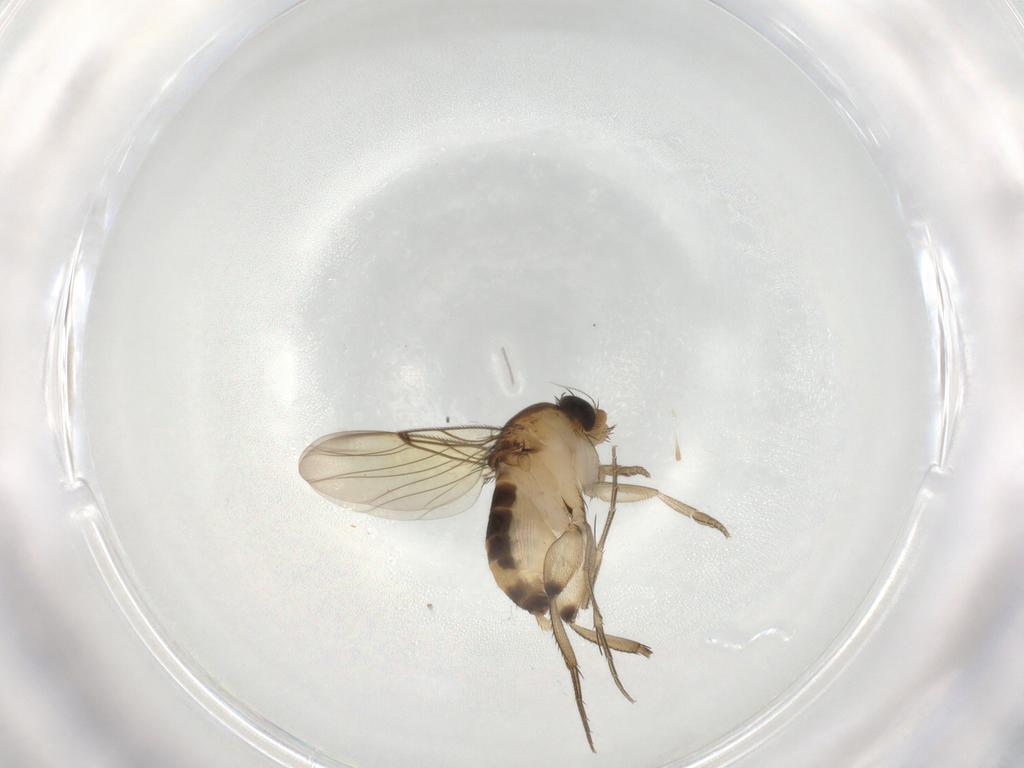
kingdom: Animalia
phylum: Arthropoda
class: Insecta
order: Diptera
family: Phoridae
